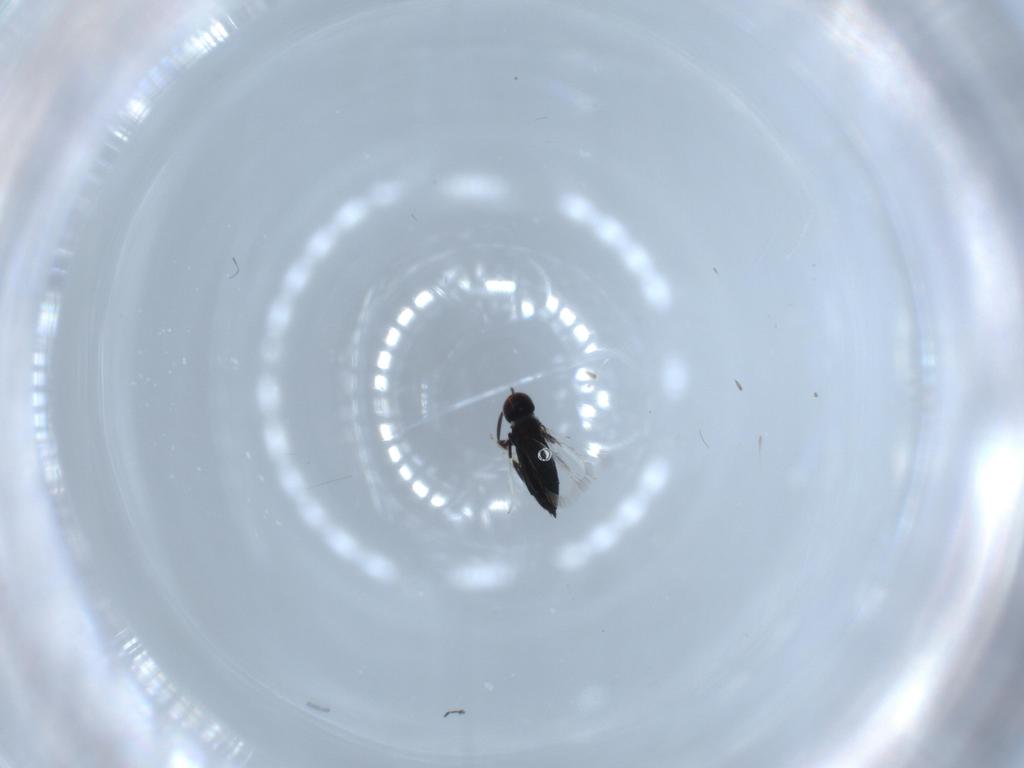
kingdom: Animalia
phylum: Arthropoda
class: Insecta
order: Hymenoptera
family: Signiphoridae
